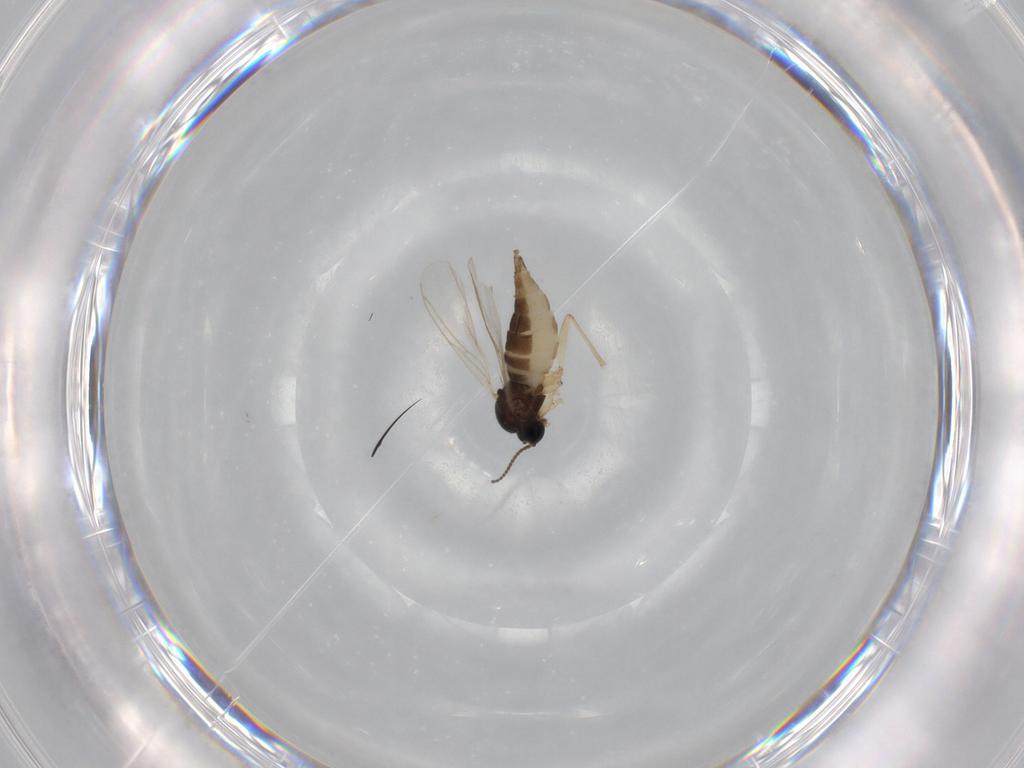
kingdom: Animalia
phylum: Arthropoda
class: Insecta
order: Diptera
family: Sciaridae
